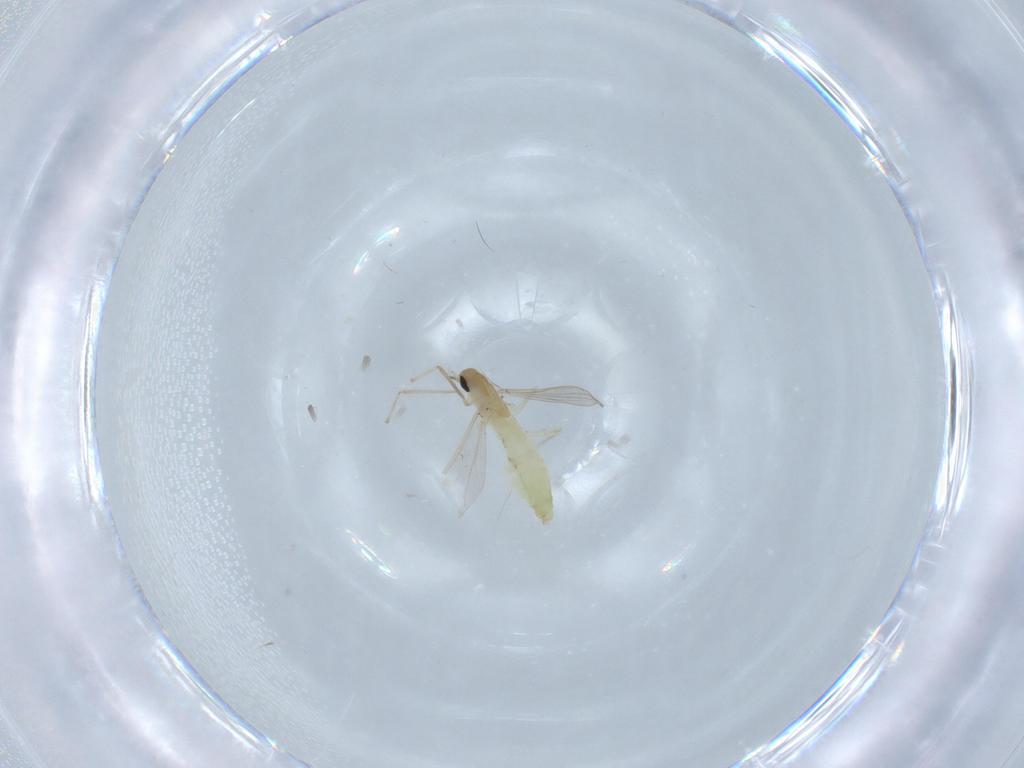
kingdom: Animalia
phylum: Arthropoda
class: Insecta
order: Diptera
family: Chironomidae
